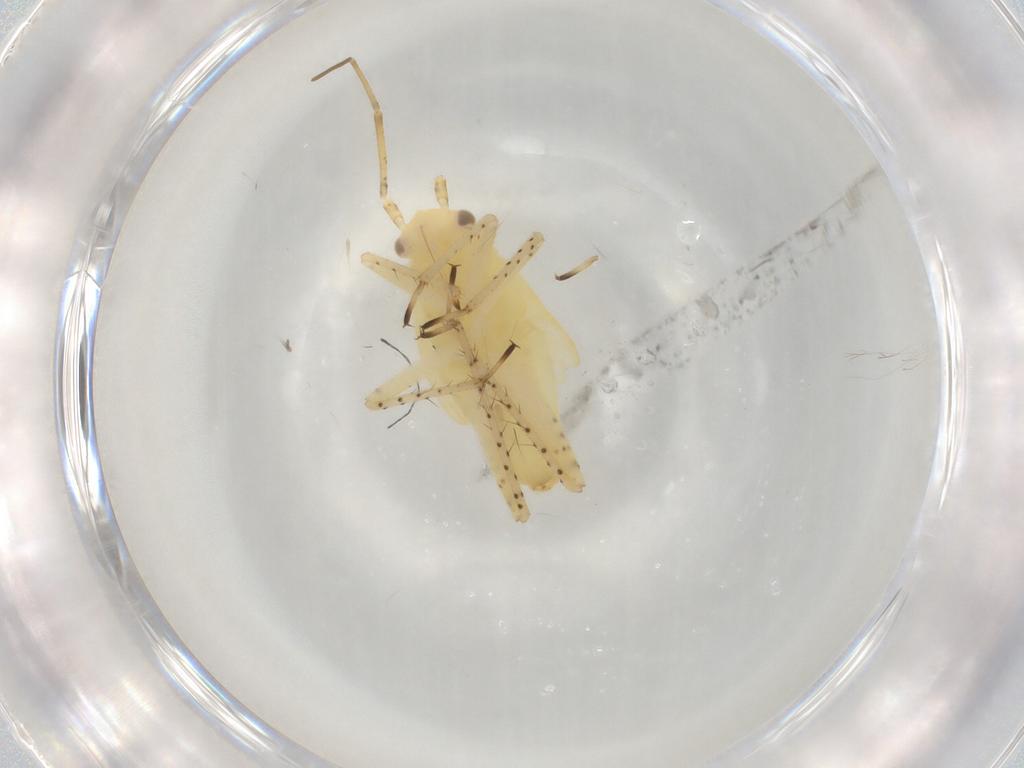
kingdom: Animalia
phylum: Arthropoda
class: Insecta
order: Hemiptera
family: Miridae
